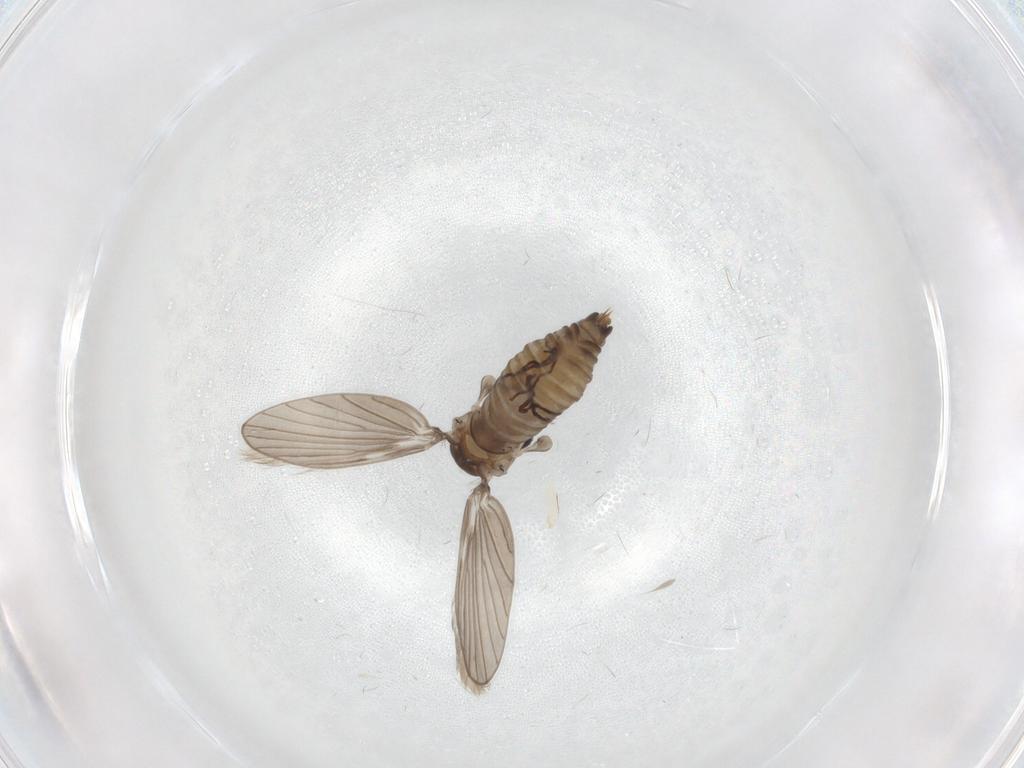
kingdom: Animalia
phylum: Arthropoda
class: Insecta
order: Diptera
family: Psychodidae
